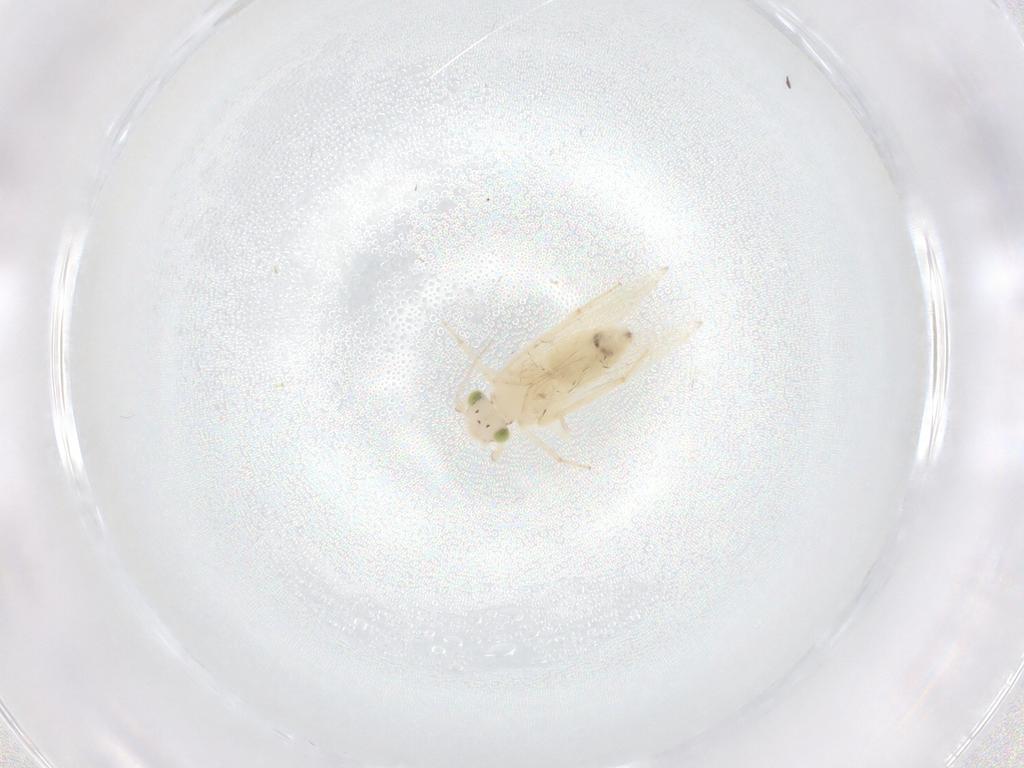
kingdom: Animalia
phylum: Arthropoda
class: Insecta
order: Psocodea
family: Lepidopsocidae
